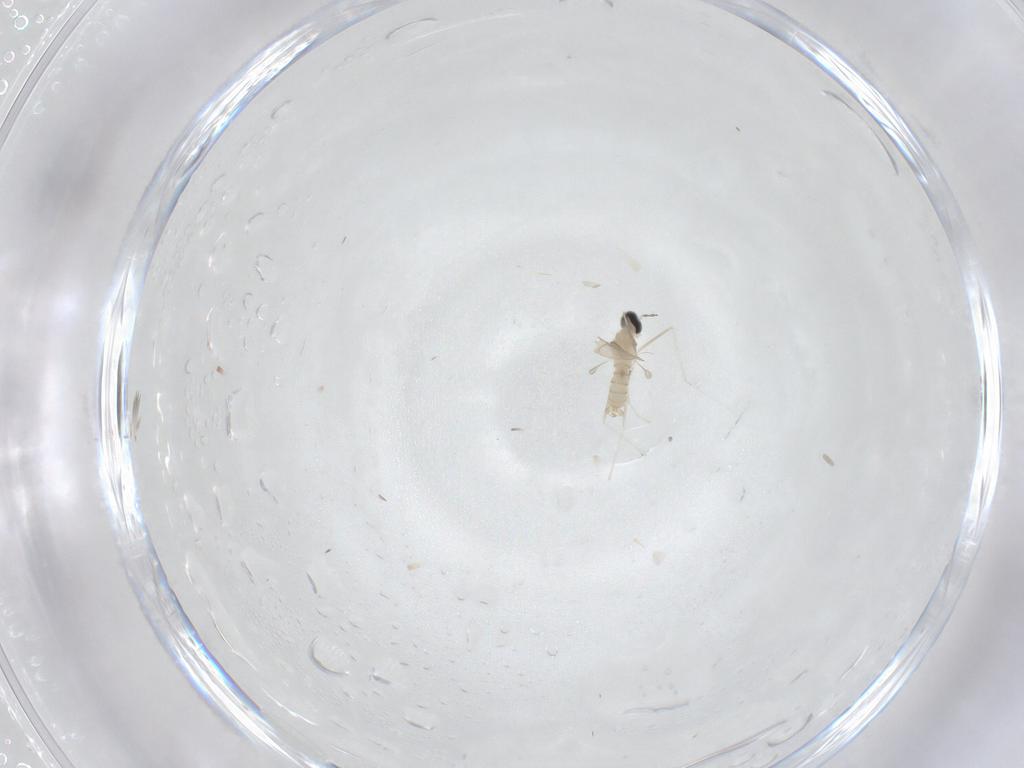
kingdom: Animalia
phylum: Arthropoda
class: Insecta
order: Diptera
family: Cecidomyiidae
